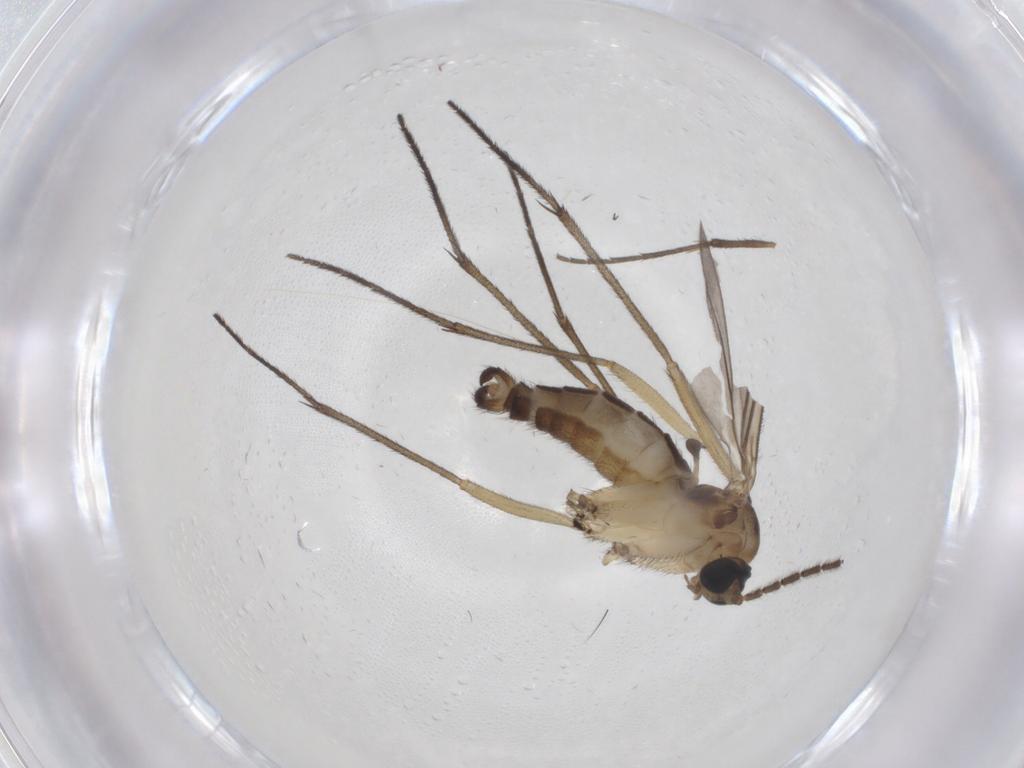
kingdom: Animalia
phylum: Arthropoda
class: Insecta
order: Diptera
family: Sciaridae
